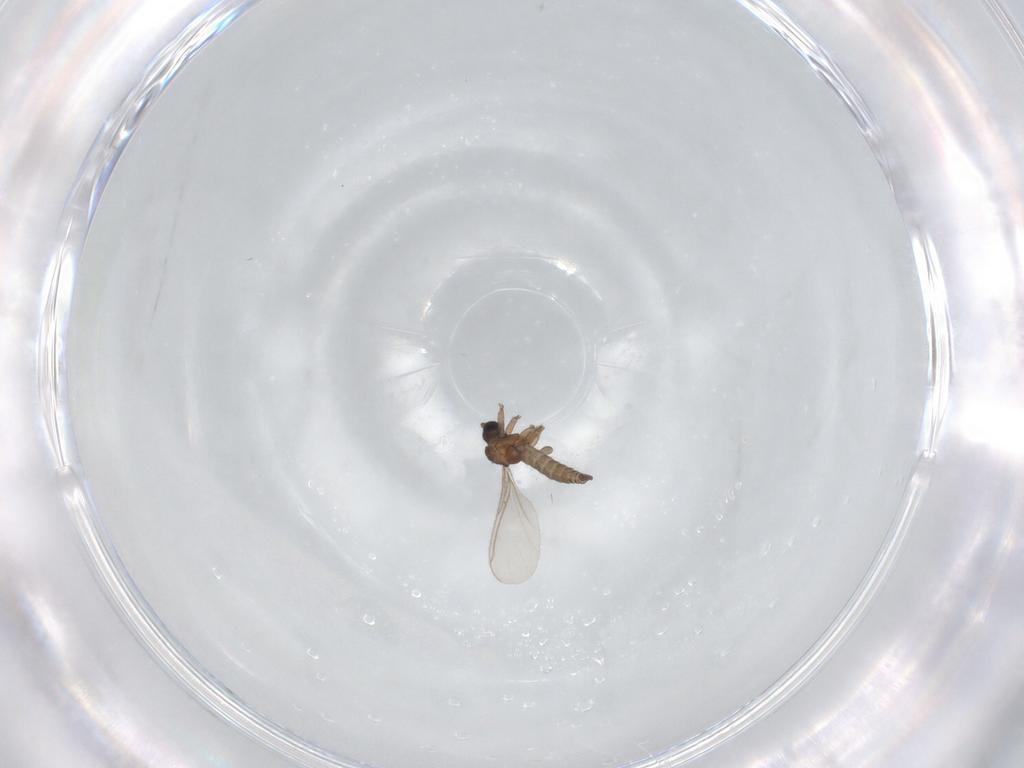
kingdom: Animalia
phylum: Arthropoda
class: Insecta
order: Diptera
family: Sciaridae
